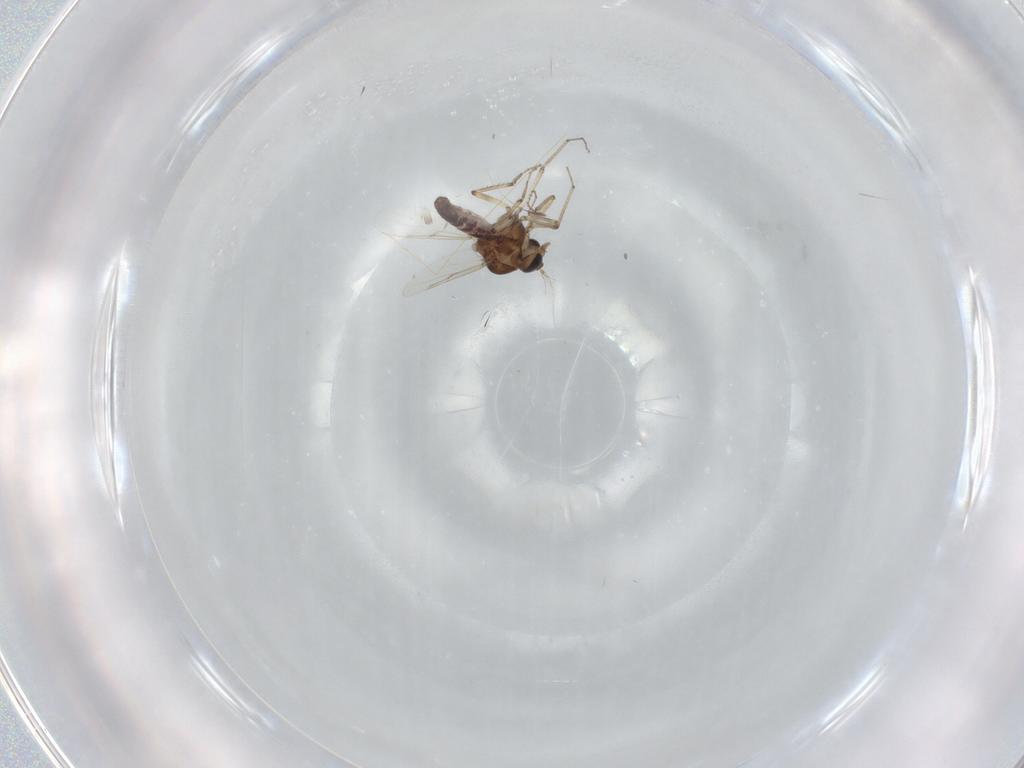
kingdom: Animalia
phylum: Arthropoda
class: Insecta
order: Diptera
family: Ceratopogonidae
